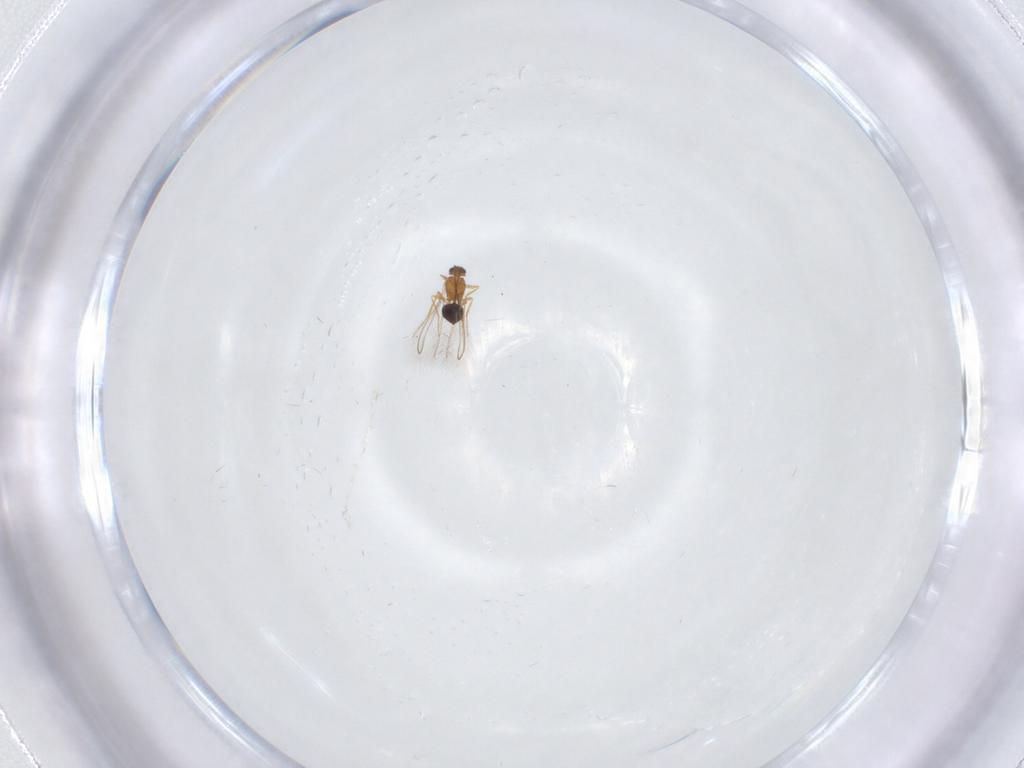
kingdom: Animalia
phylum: Arthropoda
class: Insecta
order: Hymenoptera
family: Mymaridae
